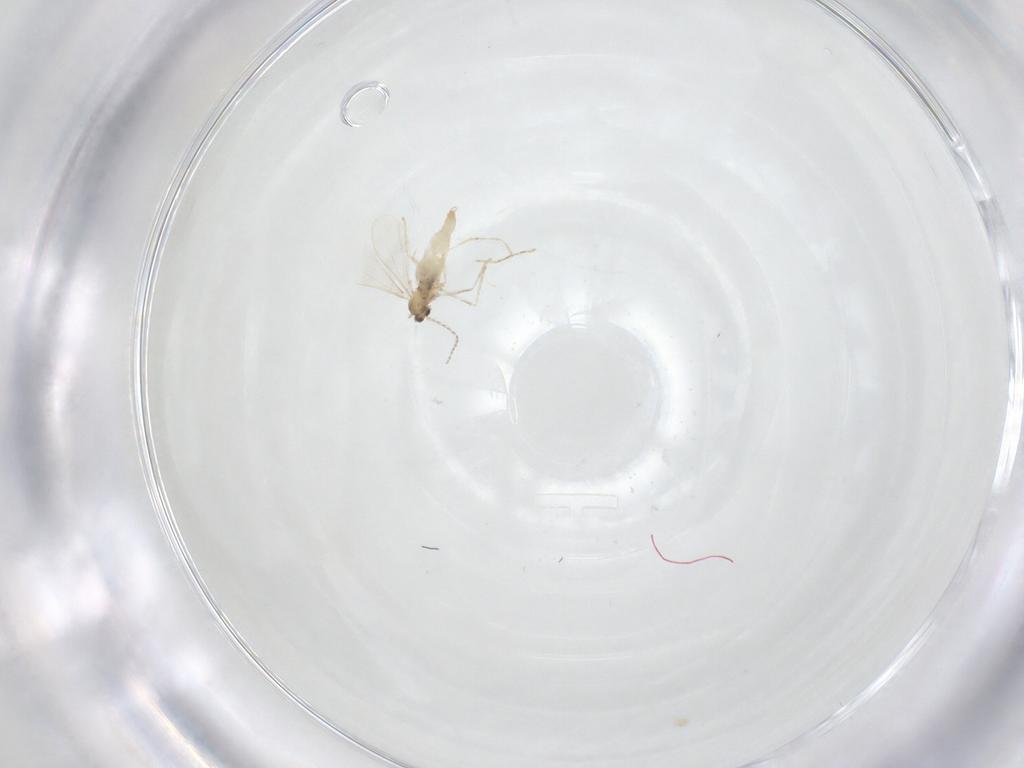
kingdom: Animalia
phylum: Arthropoda
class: Insecta
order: Diptera
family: Cecidomyiidae
